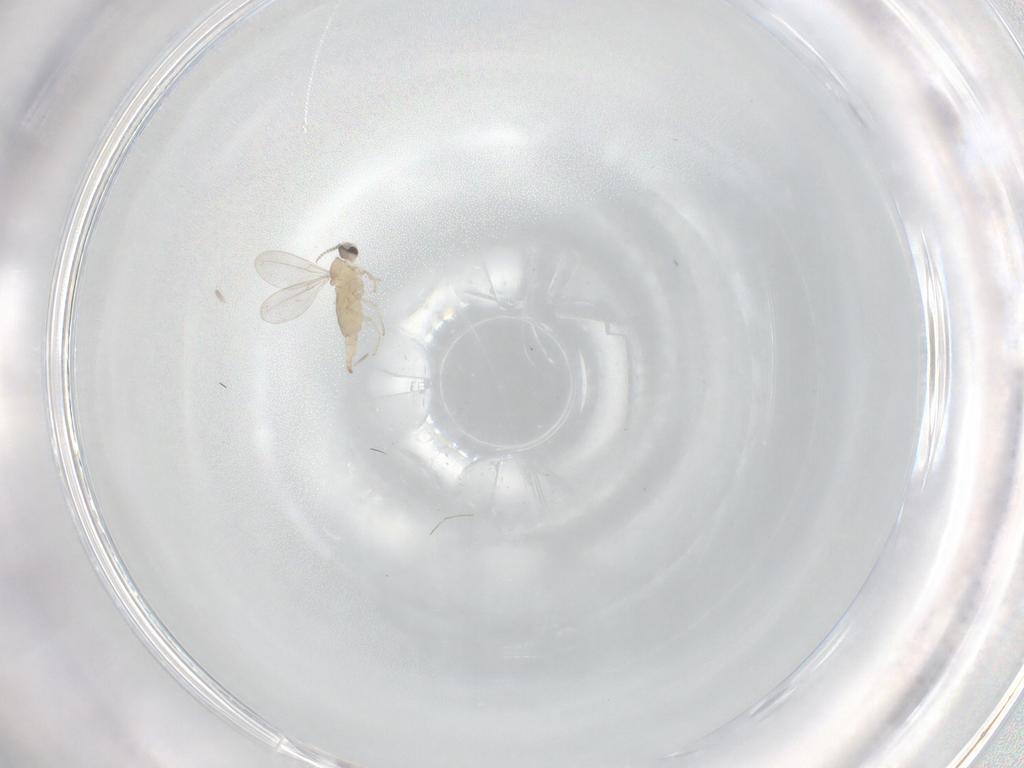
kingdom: Animalia
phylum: Arthropoda
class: Insecta
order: Diptera
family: Cecidomyiidae
